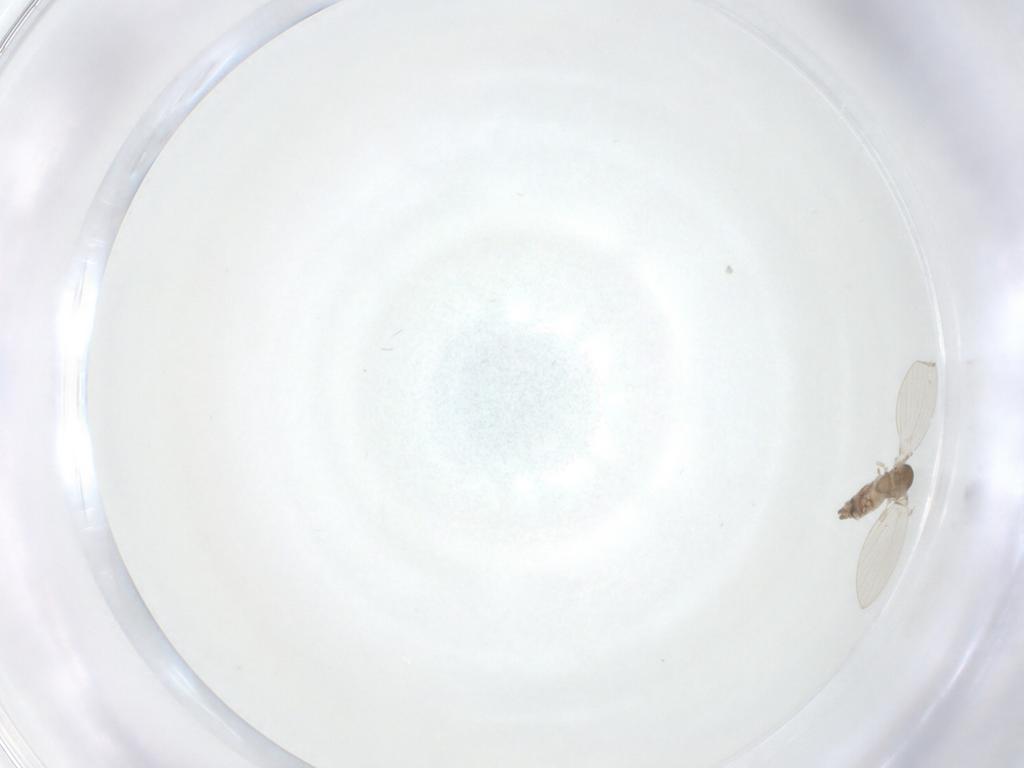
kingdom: Animalia
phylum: Arthropoda
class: Insecta
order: Diptera
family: Psychodidae
